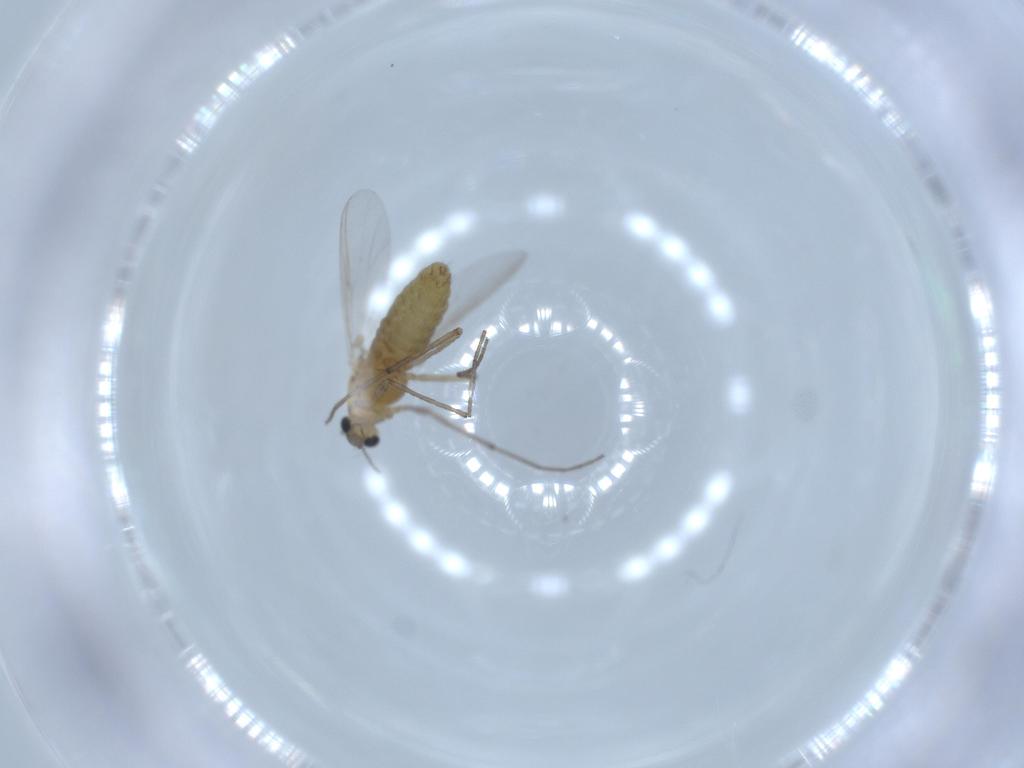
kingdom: Animalia
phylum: Arthropoda
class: Insecta
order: Diptera
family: Chironomidae
